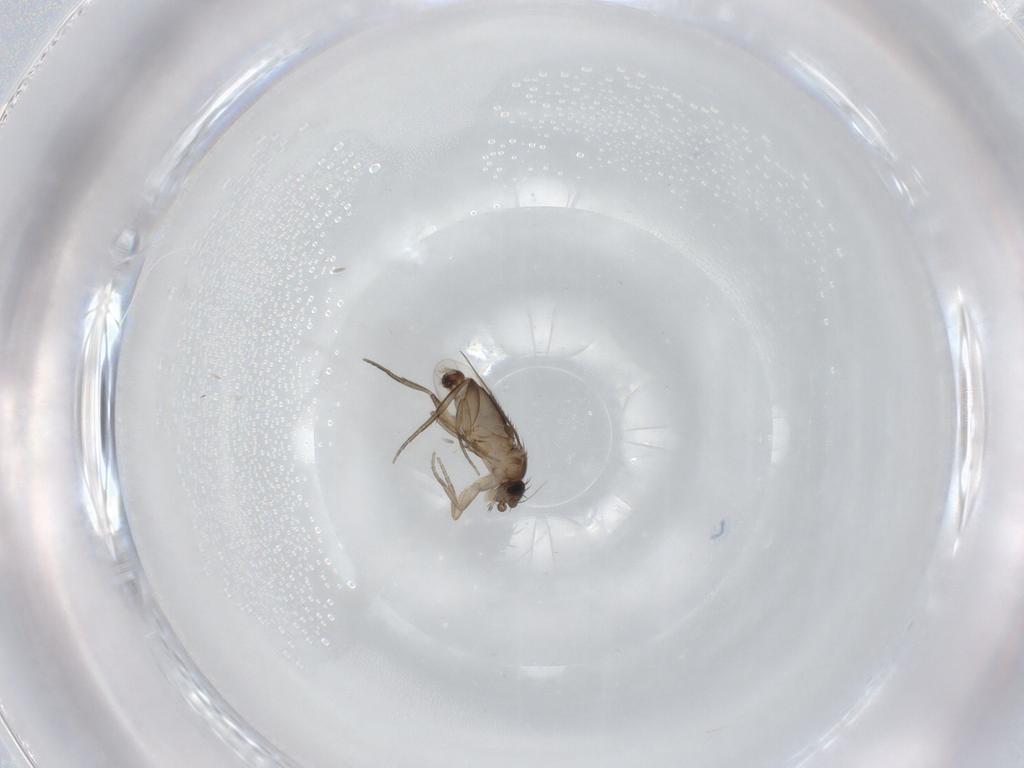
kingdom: Animalia
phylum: Arthropoda
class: Insecta
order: Diptera
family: Phoridae
